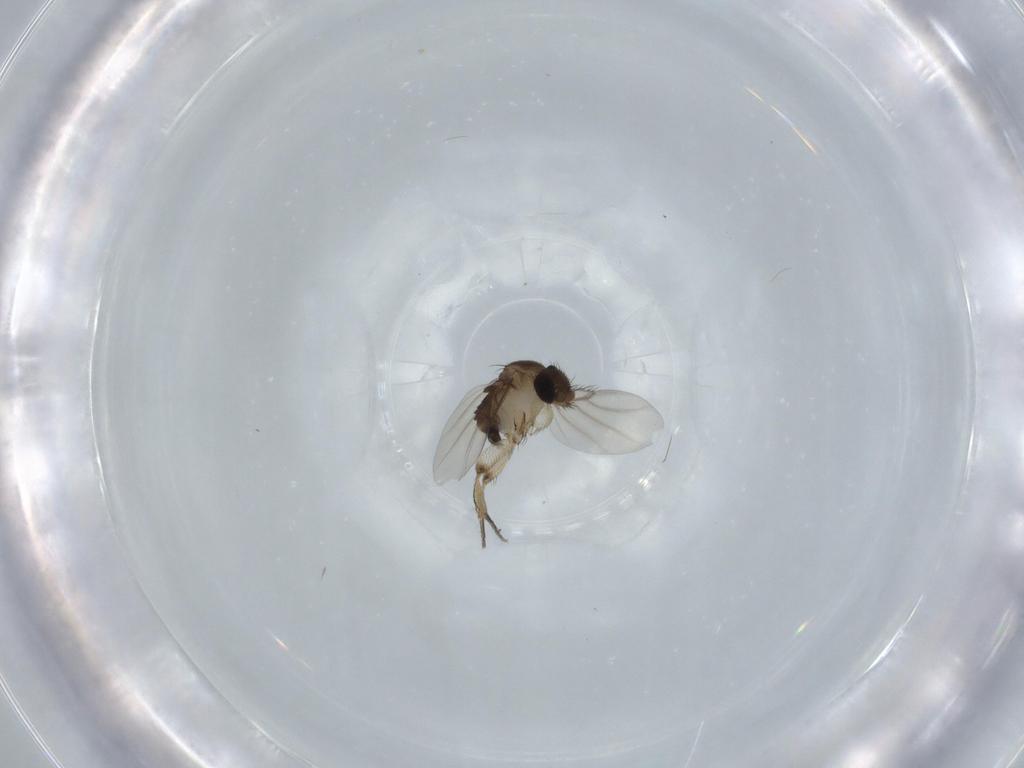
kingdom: Animalia
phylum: Arthropoda
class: Insecta
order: Diptera
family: Phoridae
